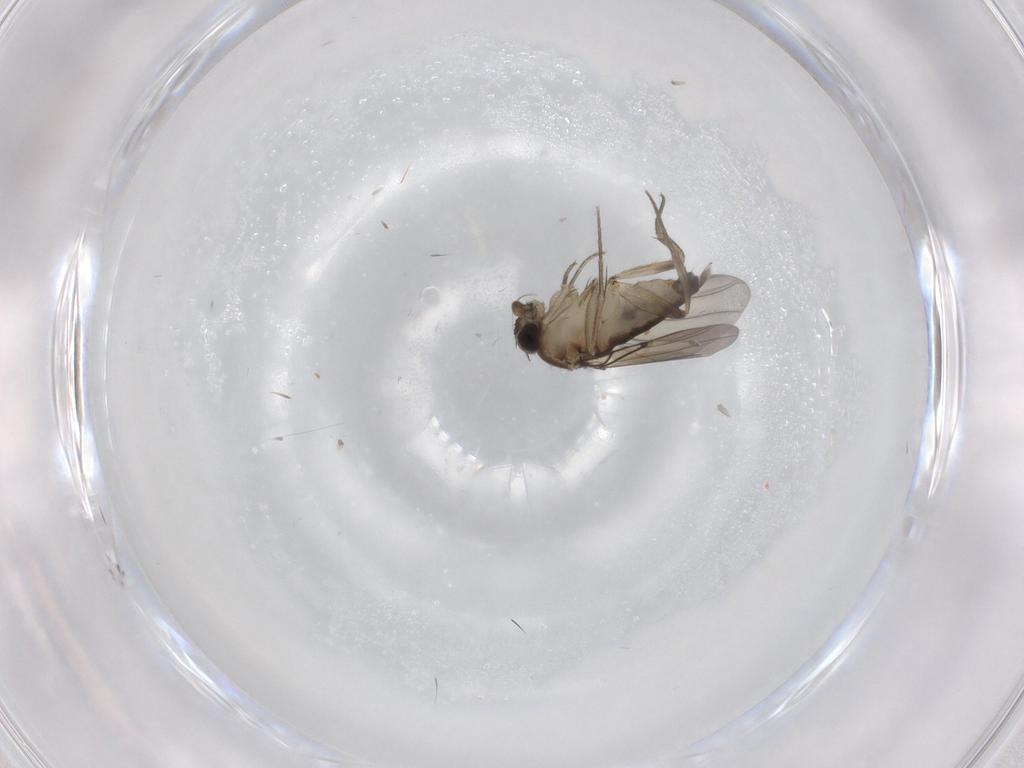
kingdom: Animalia
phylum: Arthropoda
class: Insecta
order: Diptera
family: Phoridae
